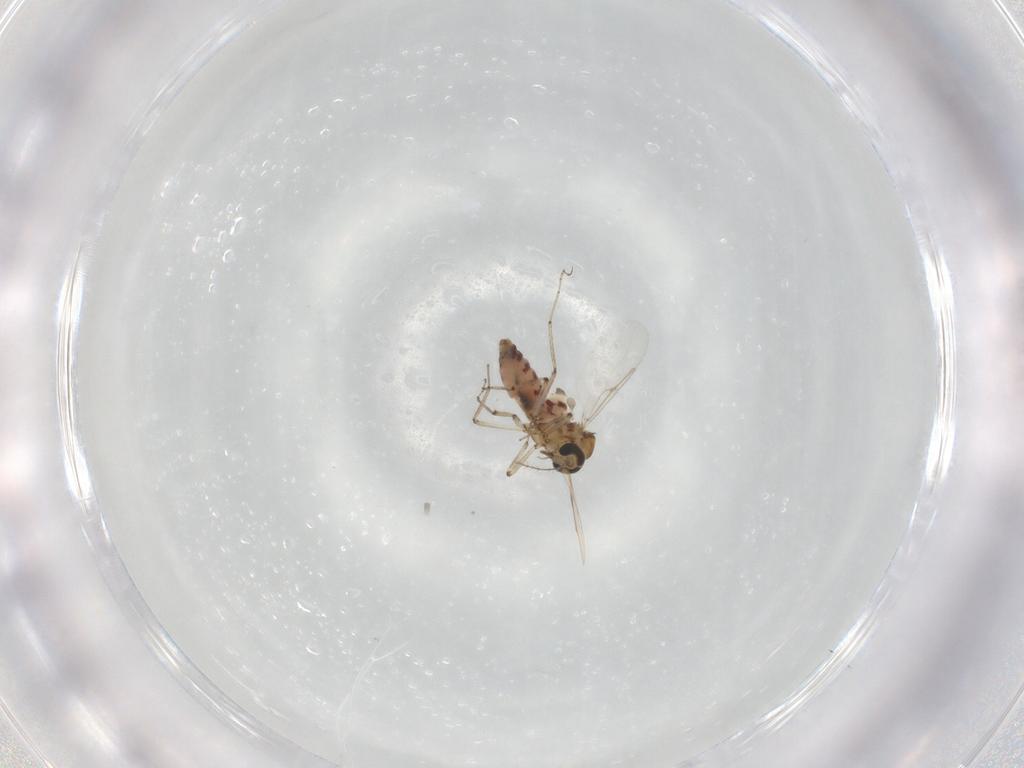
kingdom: Animalia
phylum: Arthropoda
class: Insecta
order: Diptera
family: Ceratopogonidae
